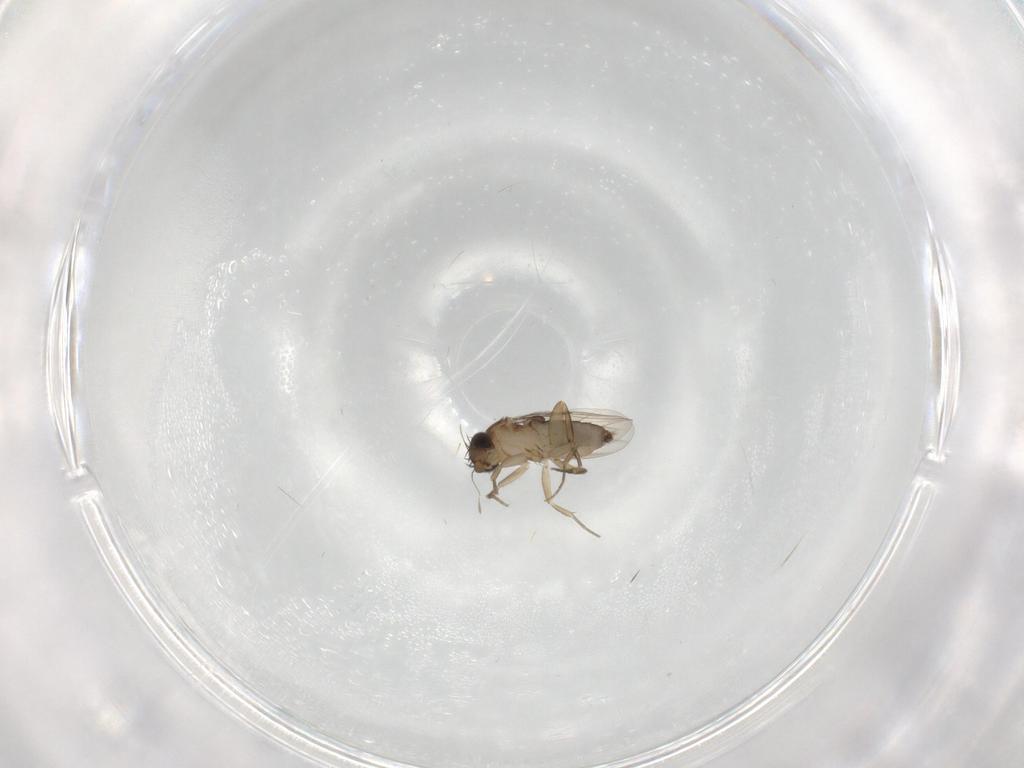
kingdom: Animalia
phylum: Arthropoda
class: Insecta
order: Diptera
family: Phoridae
